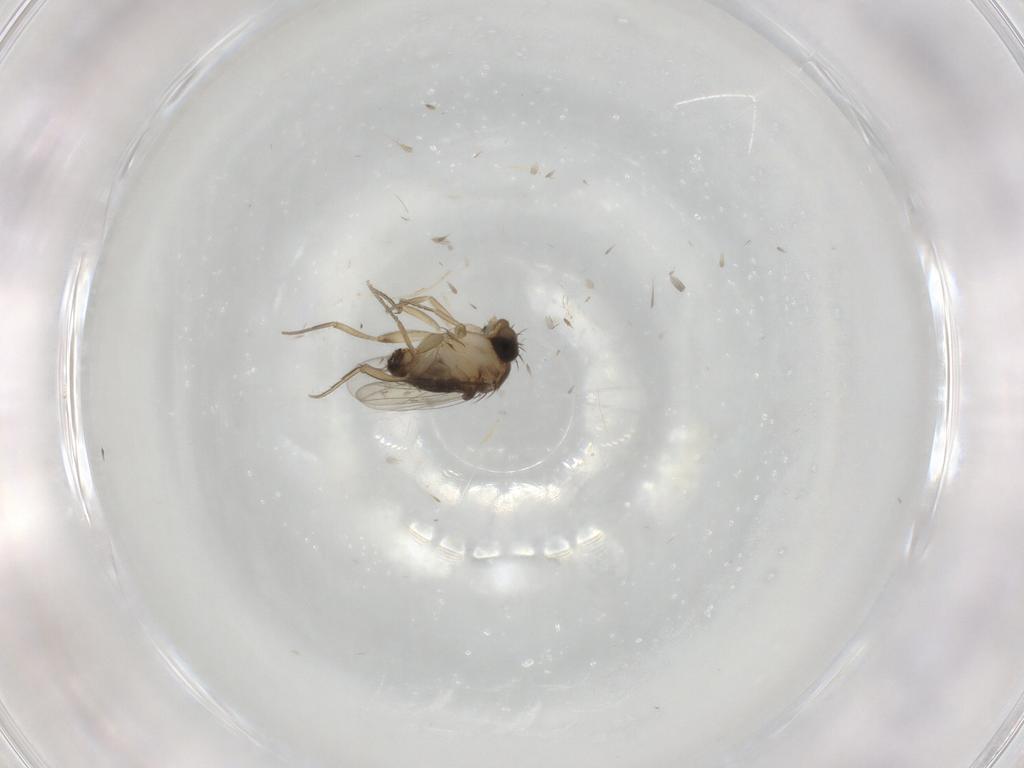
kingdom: Animalia
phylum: Arthropoda
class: Insecta
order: Diptera
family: Phoridae
